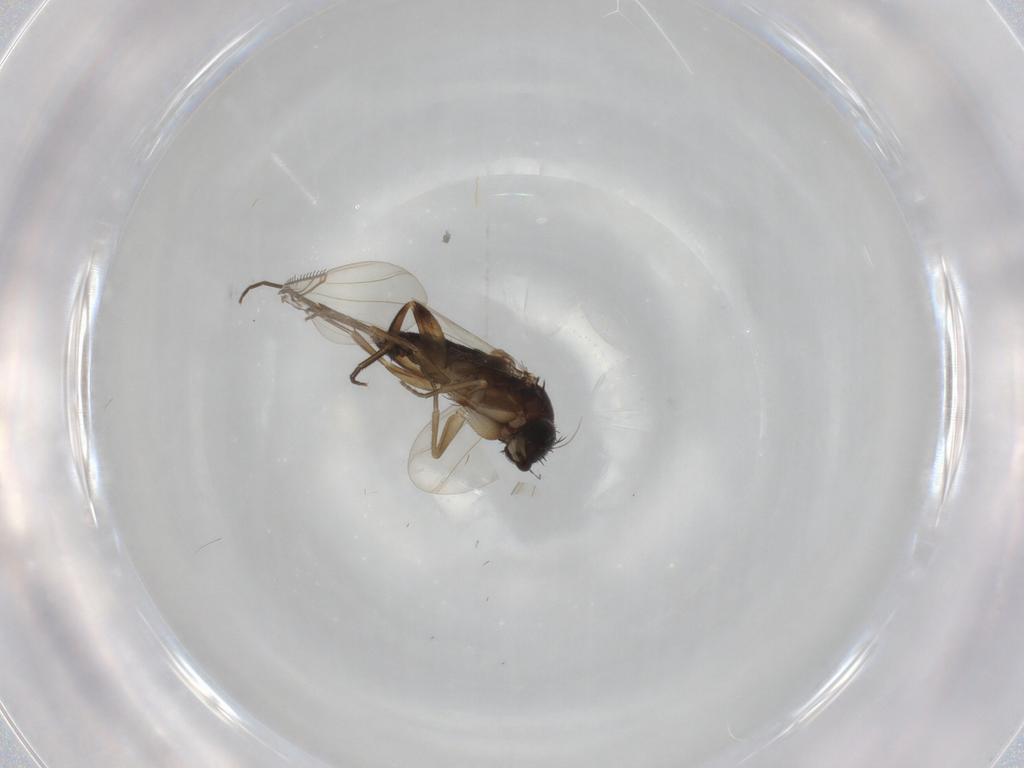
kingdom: Animalia
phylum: Arthropoda
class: Insecta
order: Diptera
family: Phoridae
